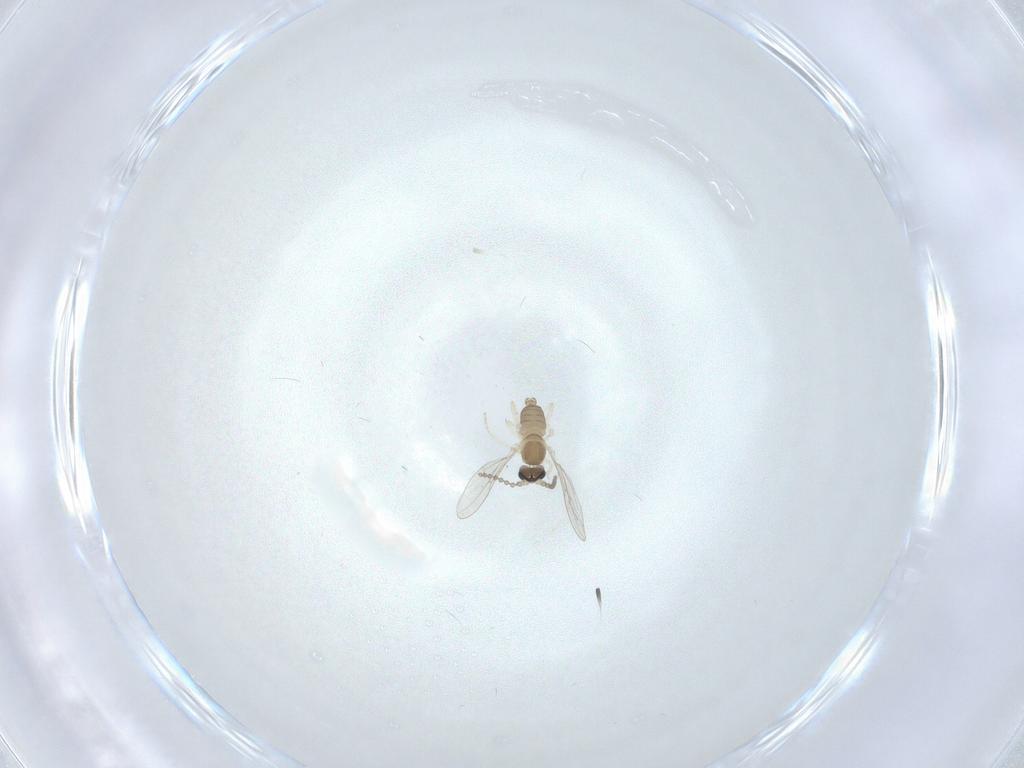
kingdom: Animalia
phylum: Arthropoda
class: Insecta
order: Diptera
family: Cecidomyiidae
